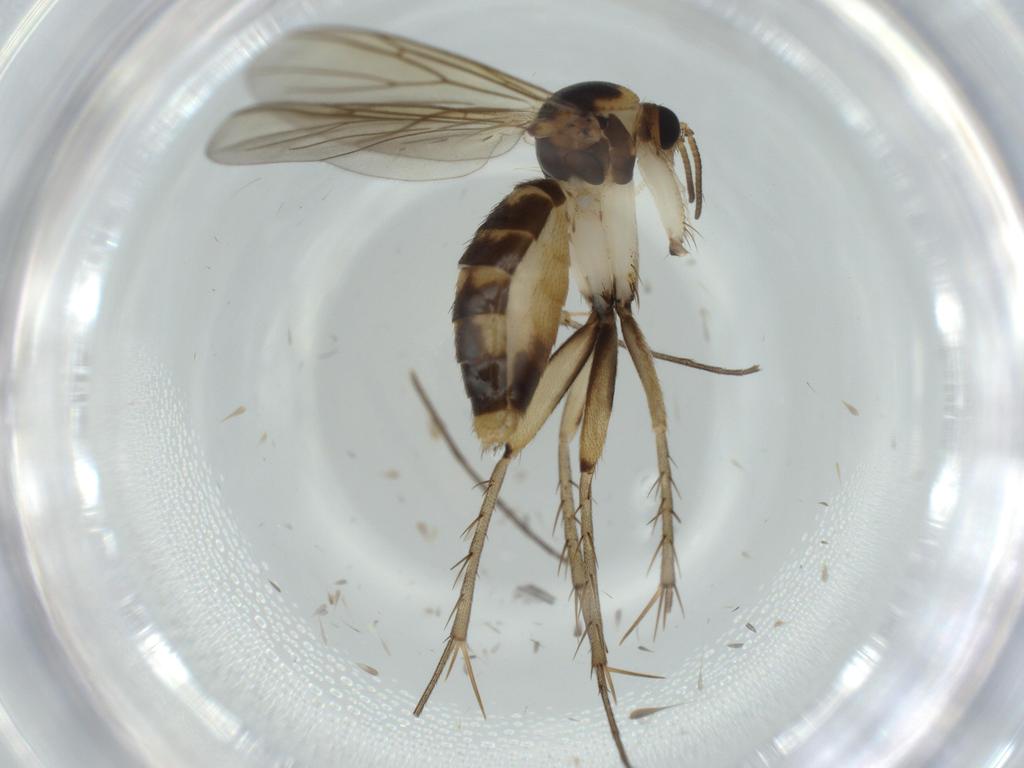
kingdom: Animalia
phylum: Arthropoda
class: Insecta
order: Diptera
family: Mycetophilidae
